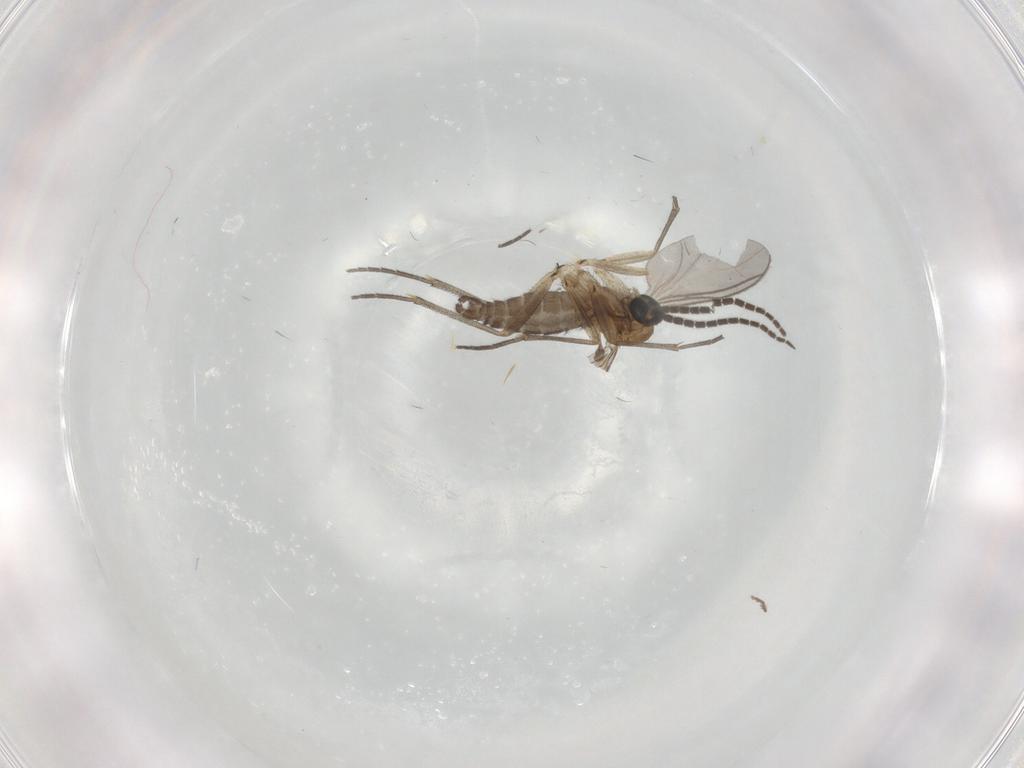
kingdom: Animalia
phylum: Arthropoda
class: Insecta
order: Diptera
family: Sciaridae
